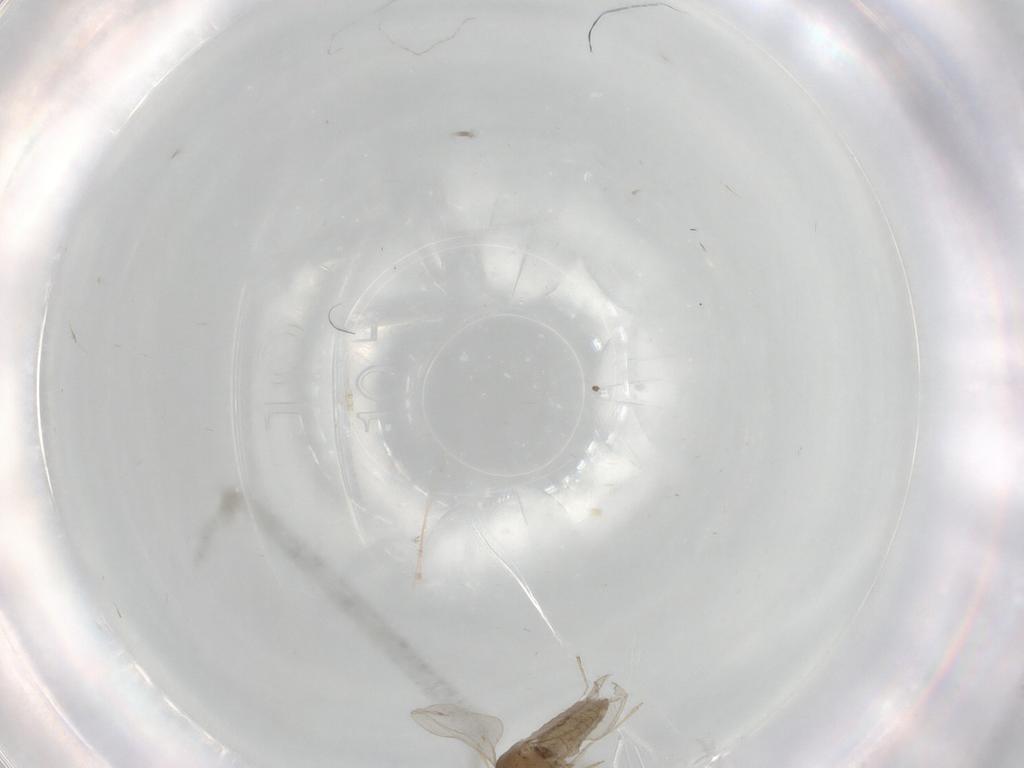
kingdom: Animalia
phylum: Arthropoda
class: Insecta
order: Diptera
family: Cecidomyiidae
